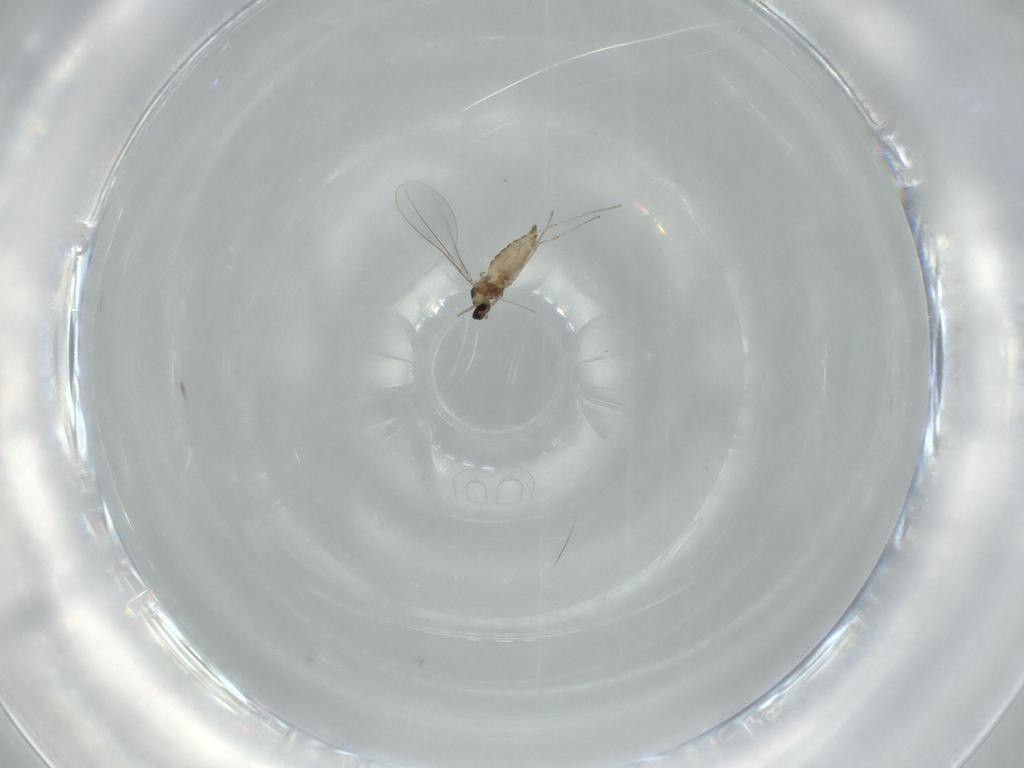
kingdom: Animalia
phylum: Arthropoda
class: Insecta
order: Diptera
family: Cecidomyiidae
